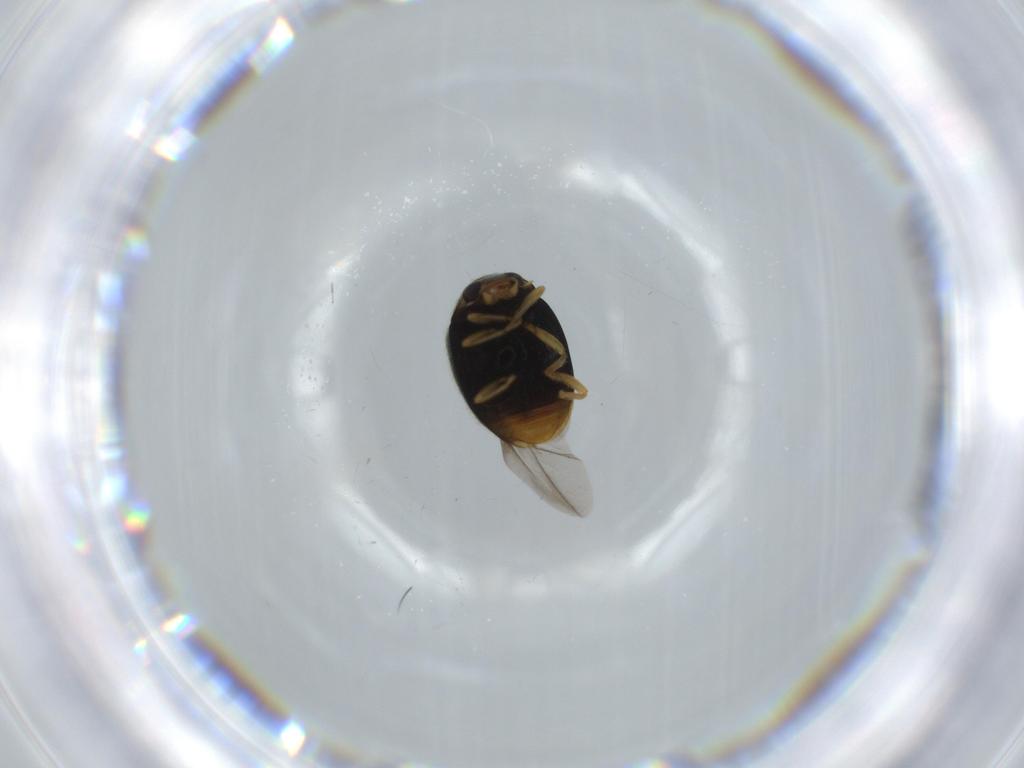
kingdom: Animalia
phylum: Arthropoda
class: Insecta
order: Coleoptera
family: Coccinellidae
